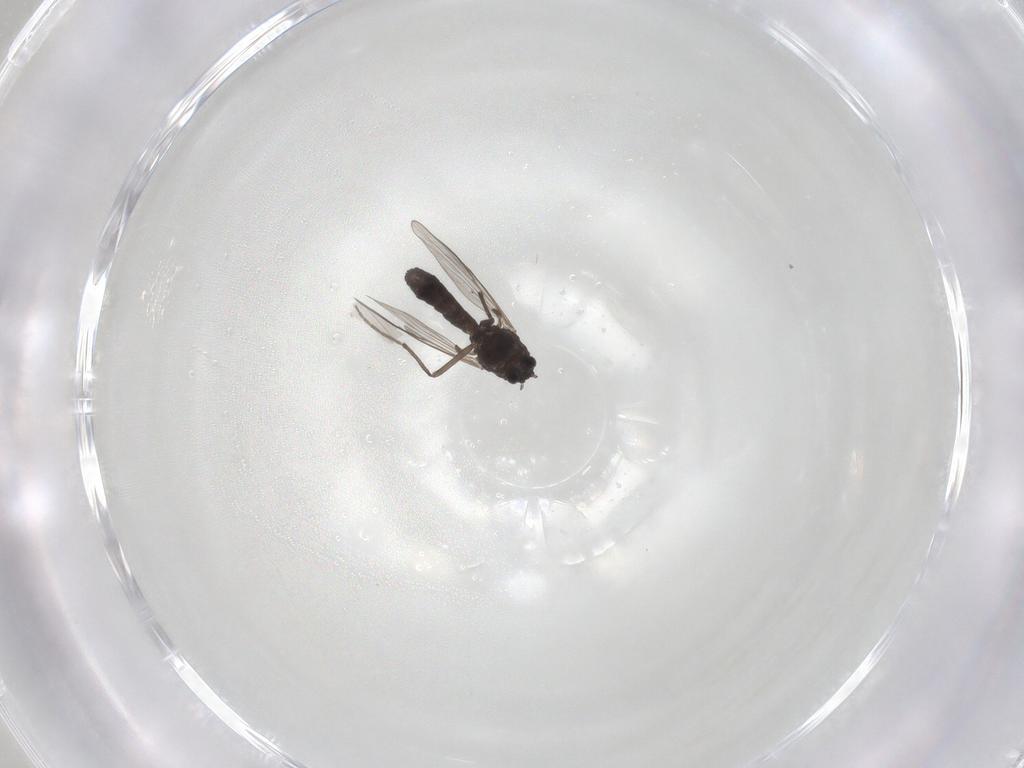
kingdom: Animalia
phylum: Arthropoda
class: Insecta
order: Diptera
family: Chironomidae
